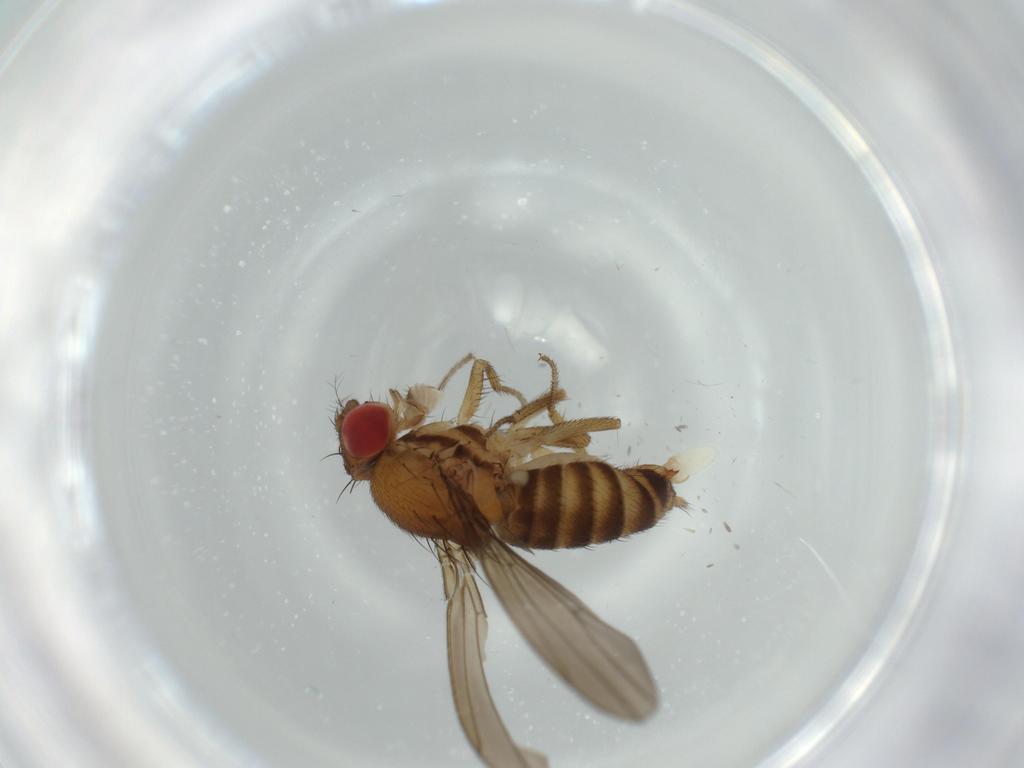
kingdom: Animalia
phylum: Arthropoda
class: Insecta
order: Diptera
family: Drosophilidae
